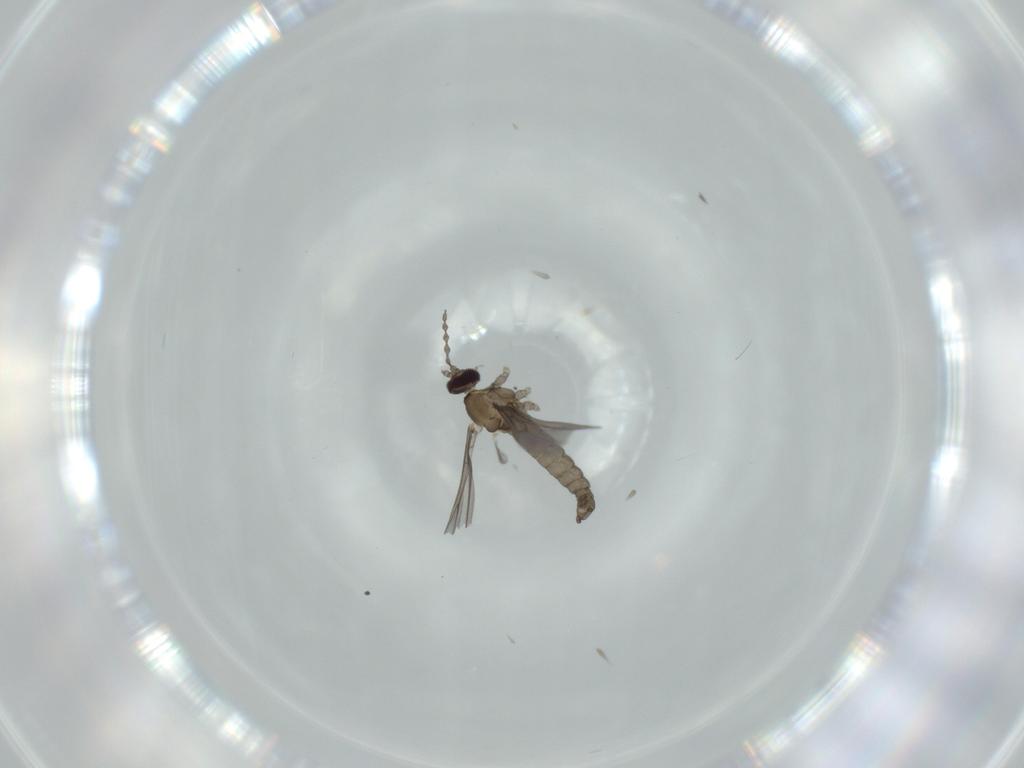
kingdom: Animalia
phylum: Arthropoda
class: Insecta
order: Diptera
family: Cecidomyiidae
